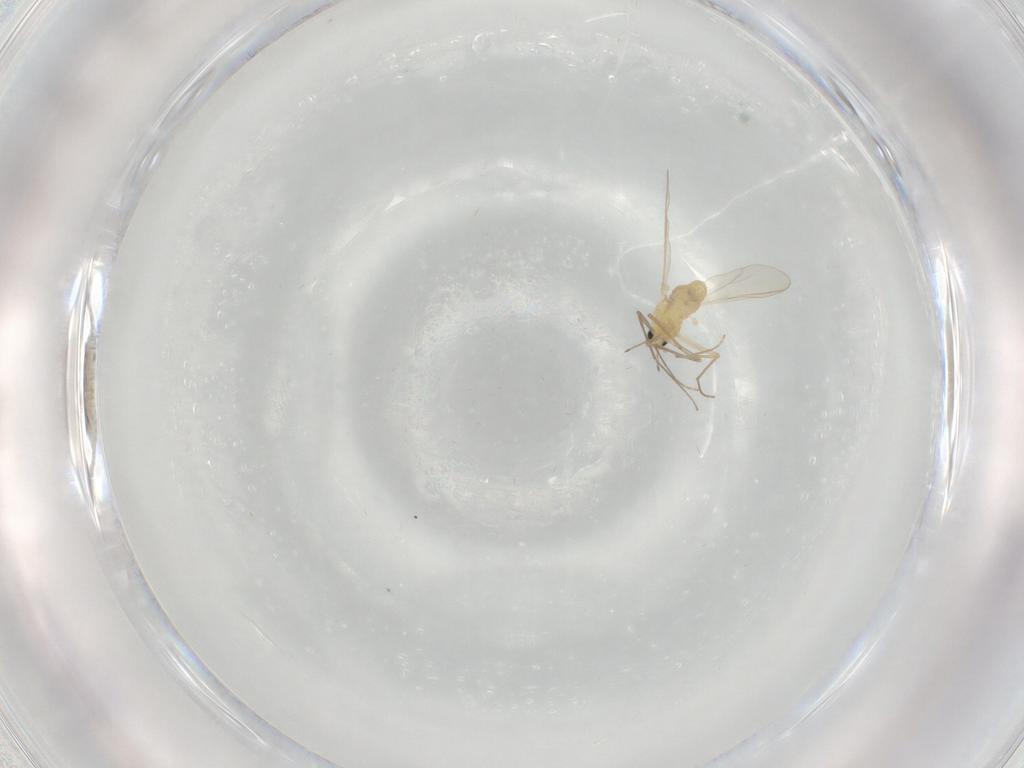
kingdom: Animalia
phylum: Arthropoda
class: Insecta
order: Diptera
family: Chironomidae
